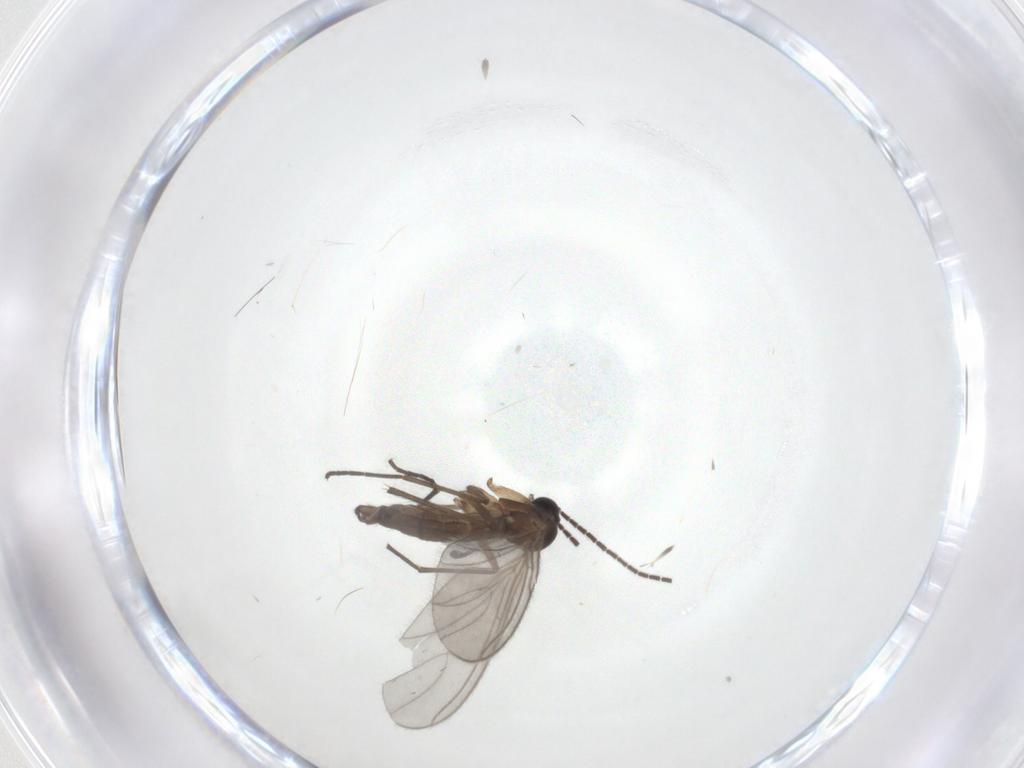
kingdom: Animalia
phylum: Arthropoda
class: Insecta
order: Diptera
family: Sciaridae
